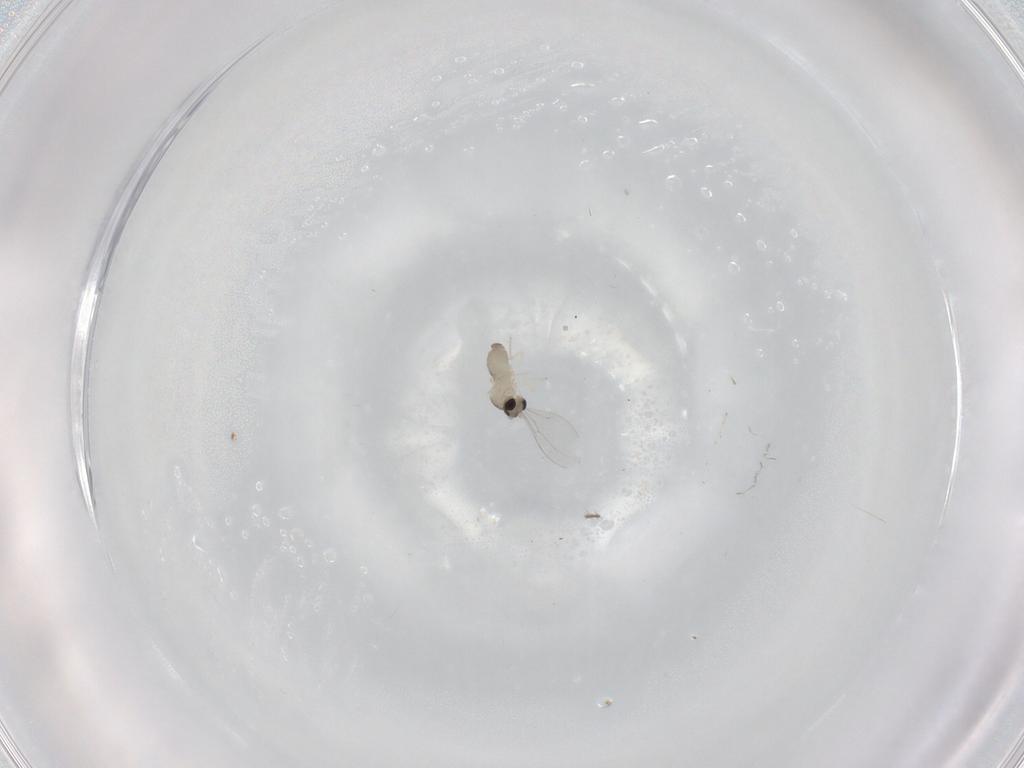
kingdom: Animalia
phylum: Arthropoda
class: Insecta
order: Diptera
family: Cecidomyiidae
